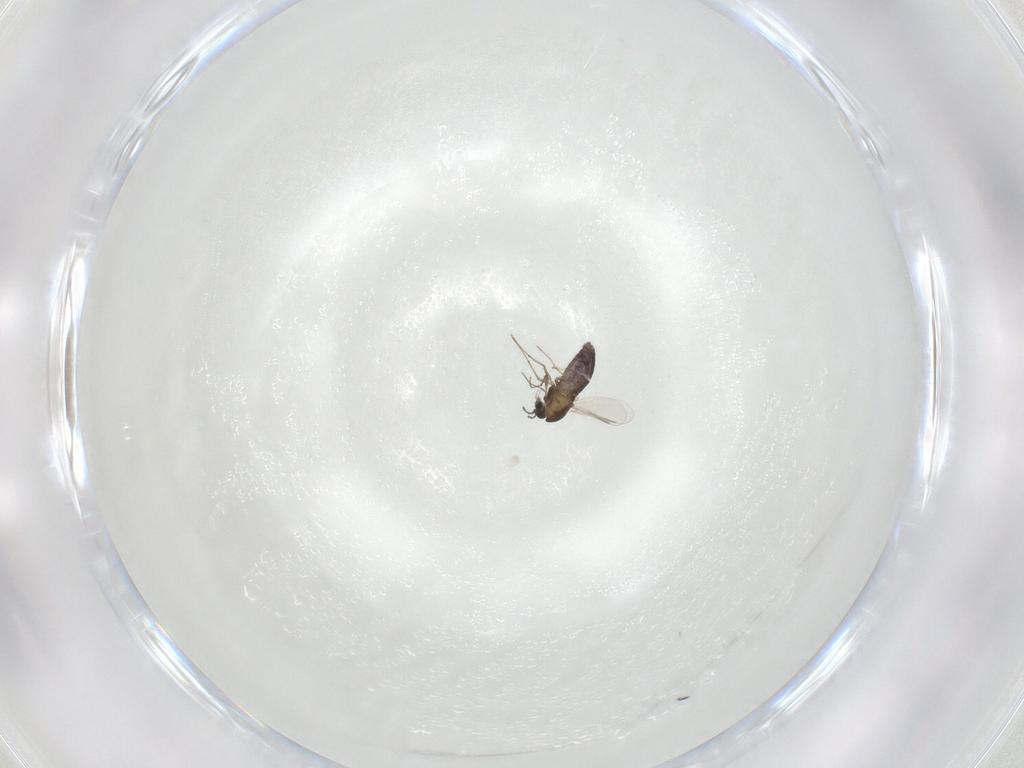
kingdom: Animalia
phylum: Arthropoda
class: Insecta
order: Diptera
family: Chironomidae
